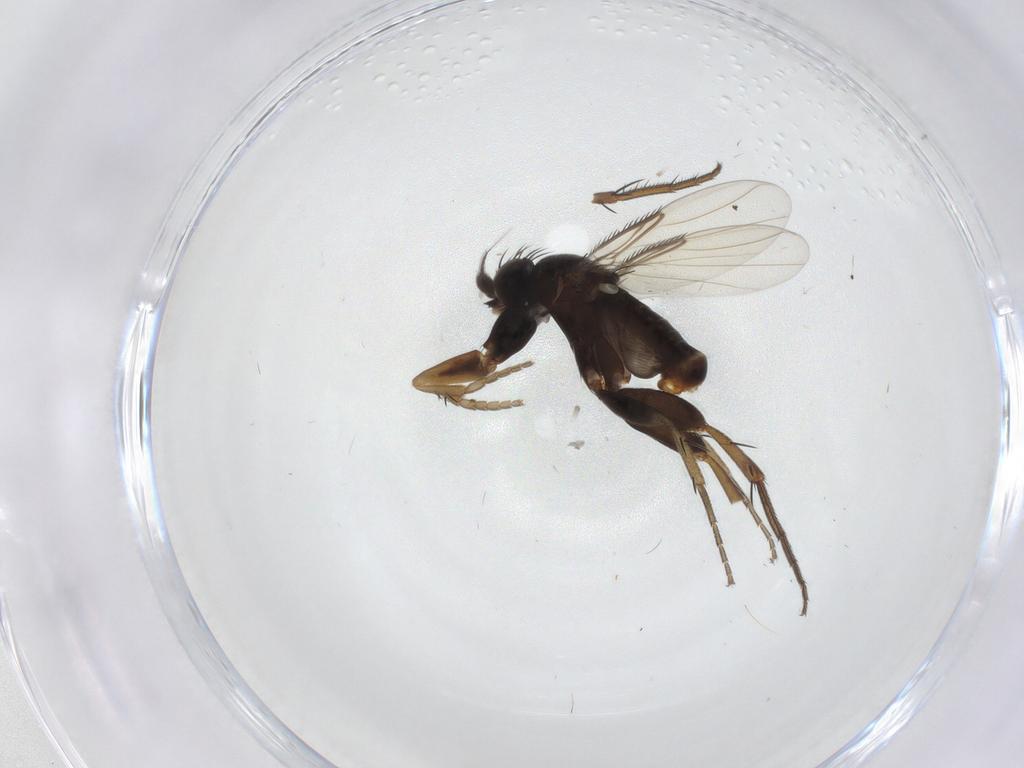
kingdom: Animalia
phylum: Arthropoda
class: Insecta
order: Diptera
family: Phoridae
